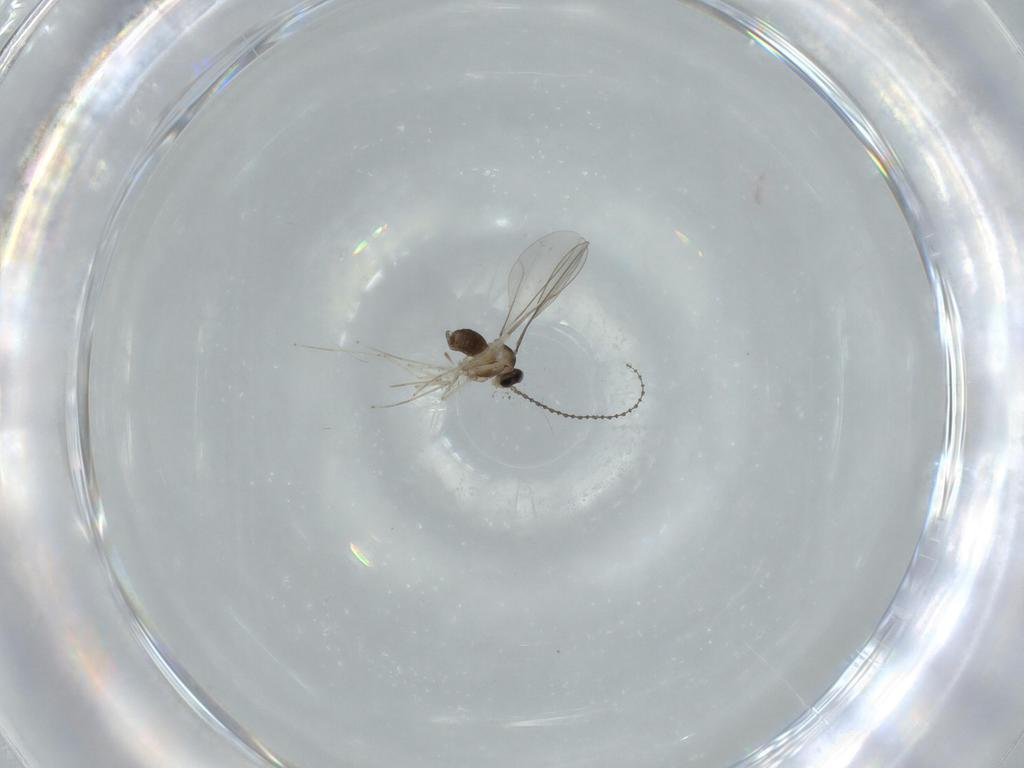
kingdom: Animalia
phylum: Arthropoda
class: Insecta
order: Diptera
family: Cecidomyiidae
